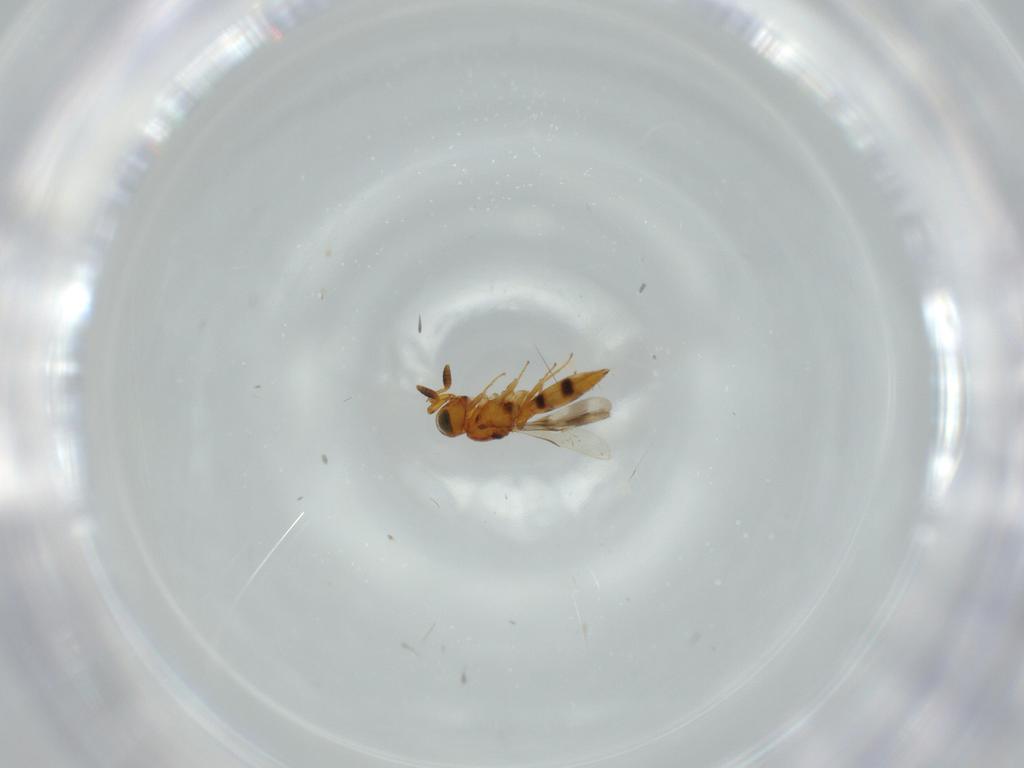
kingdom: Animalia
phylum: Arthropoda
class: Insecta
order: Hymenoptera
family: Scelionidae
